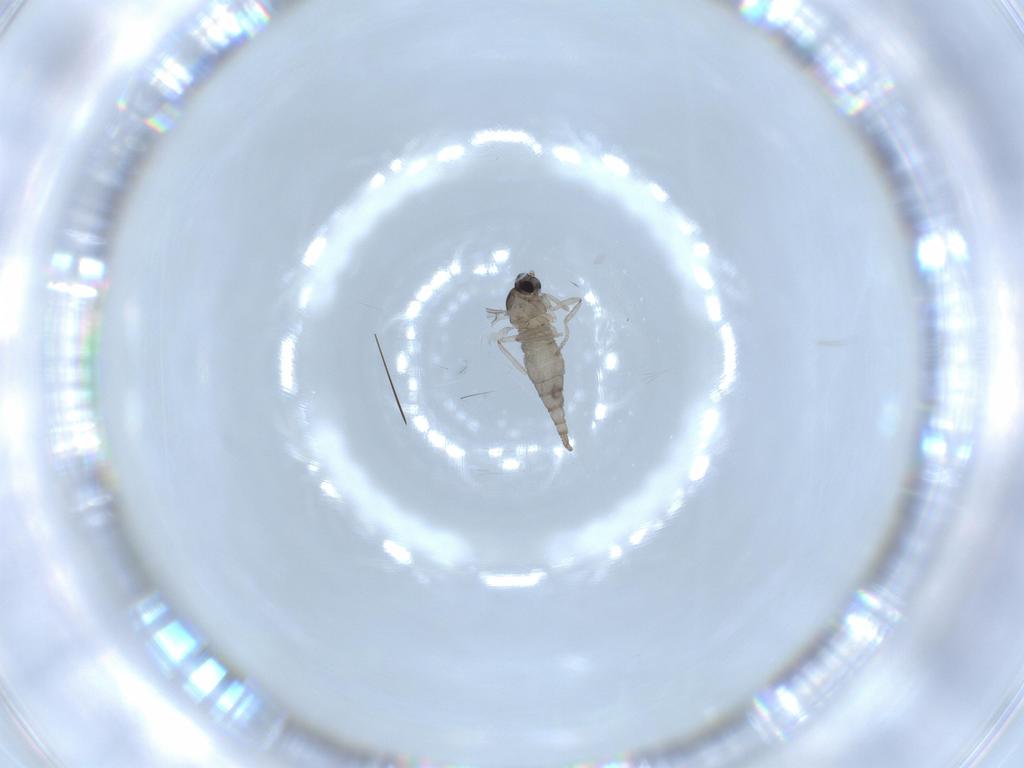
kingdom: Animalia
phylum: Arthropoda
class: Insecta
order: Diptera
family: Cecidomyiidae
